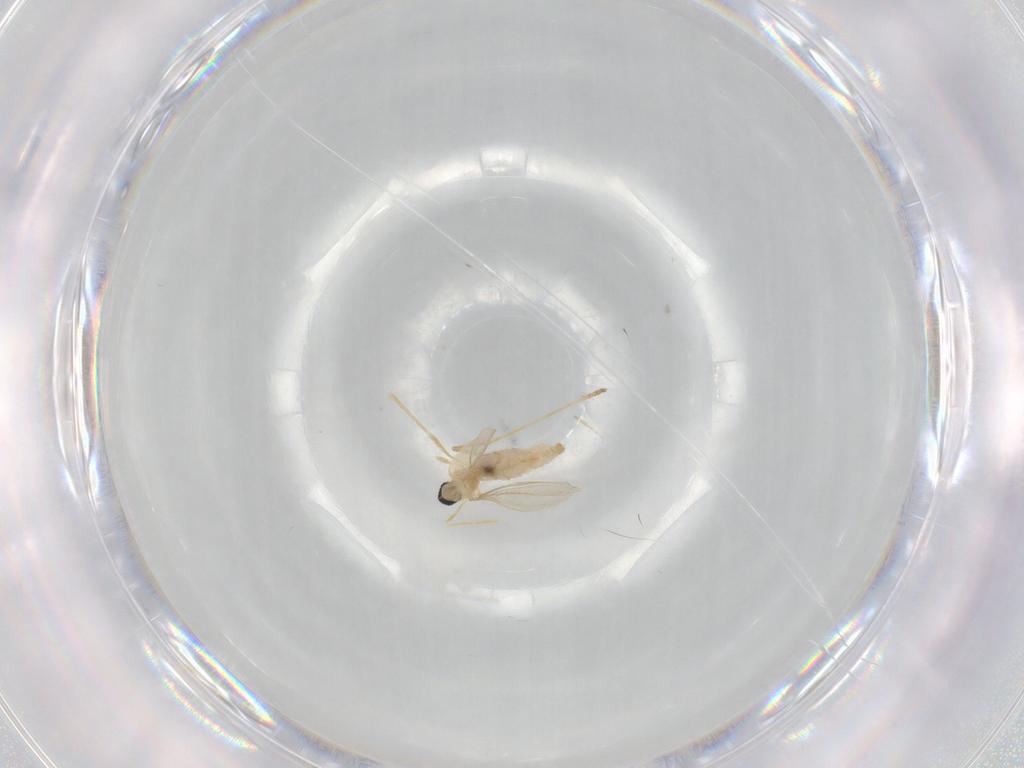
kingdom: Animalia
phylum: Arthropoda
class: Insecta
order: Diptera
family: Cecidomyiidae
